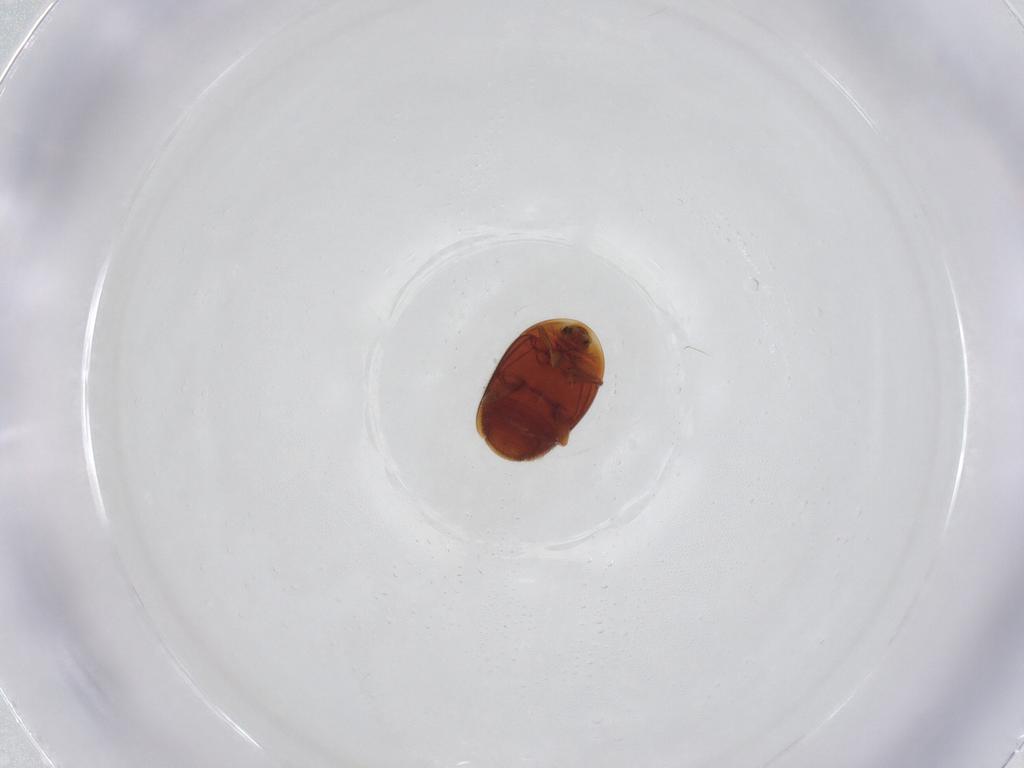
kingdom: Animalia
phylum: Arthropoda
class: Insecta
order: Coleoptera
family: Corylophidae
